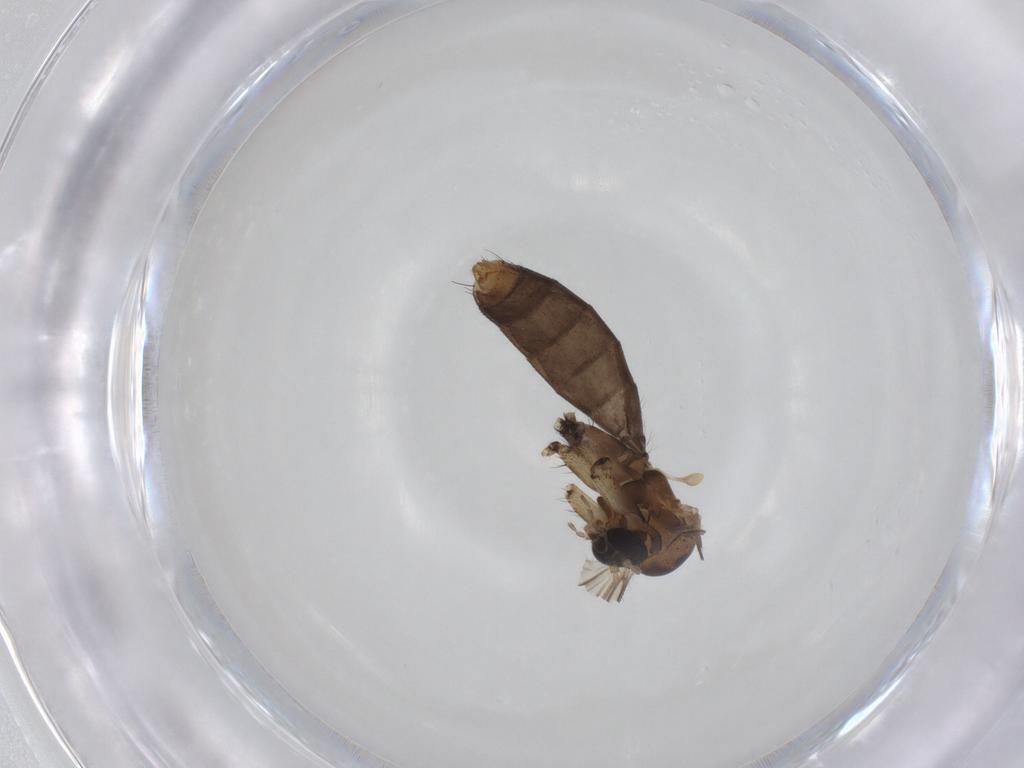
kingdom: Animalia
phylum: Arthropoda
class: Insecta
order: Diptera
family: Mycetophilidae
